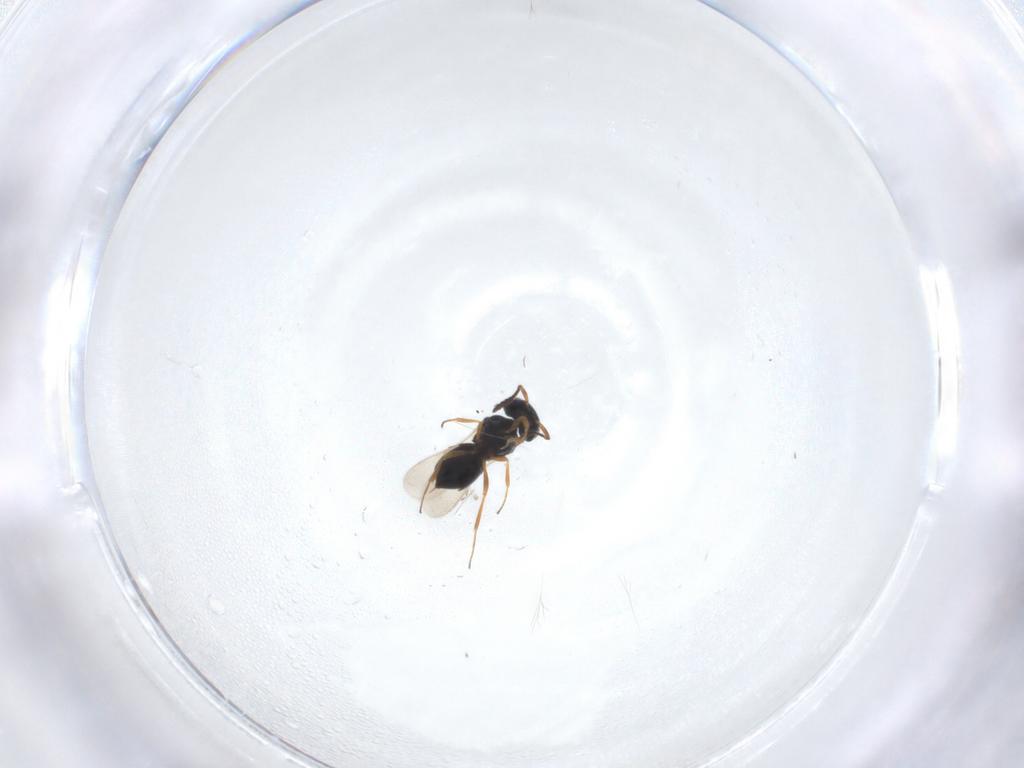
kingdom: Animalia
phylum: Arthropoda
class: Insecta
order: Hymenoptera
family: Scelionidae
